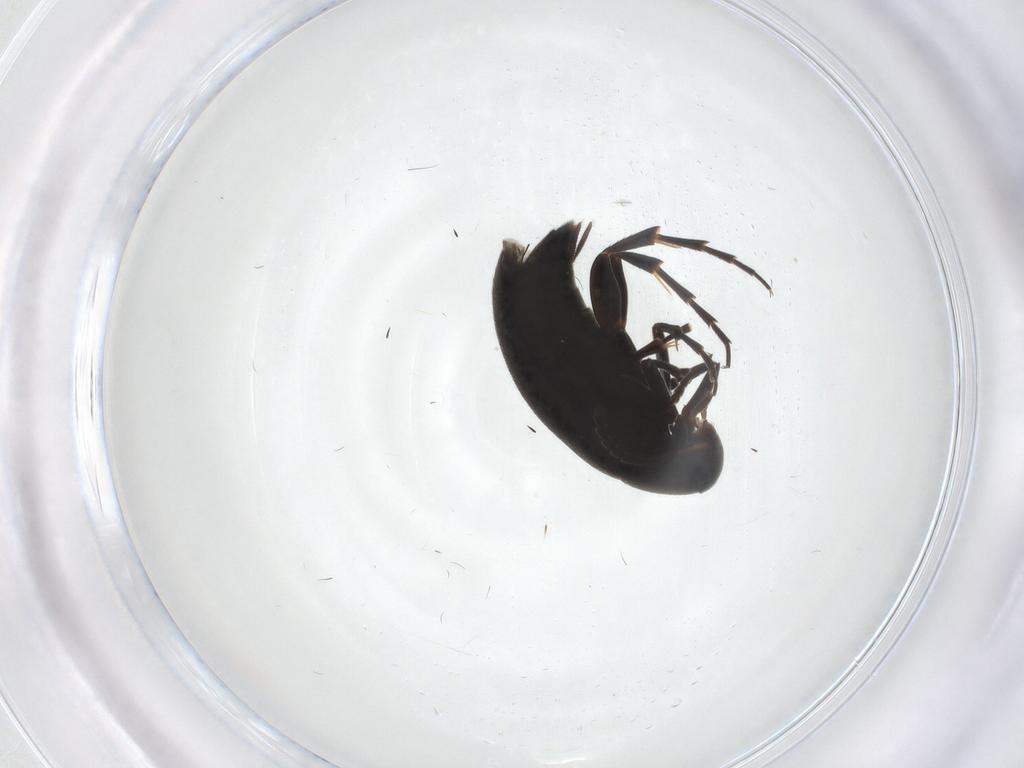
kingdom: Animalia
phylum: Arthropoda
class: Insecta
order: Coleoptera
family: Scraptiidae
